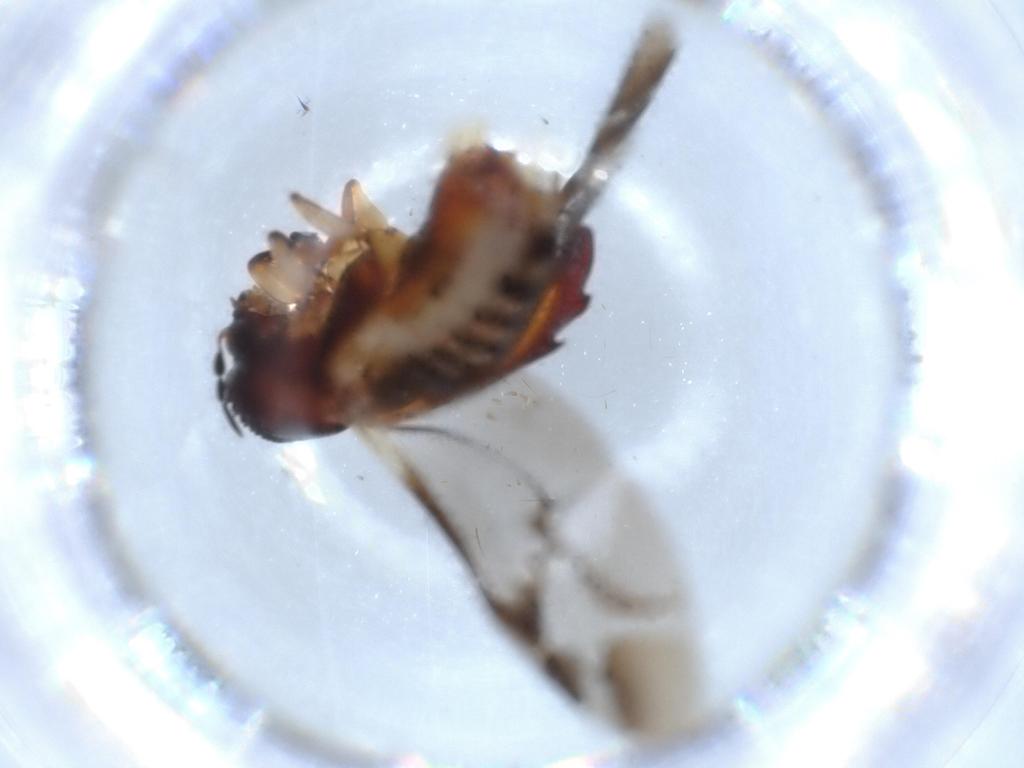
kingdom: Animalia
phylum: Arthropoda
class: Insecta
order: Coleoptera
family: Bostrichidae
